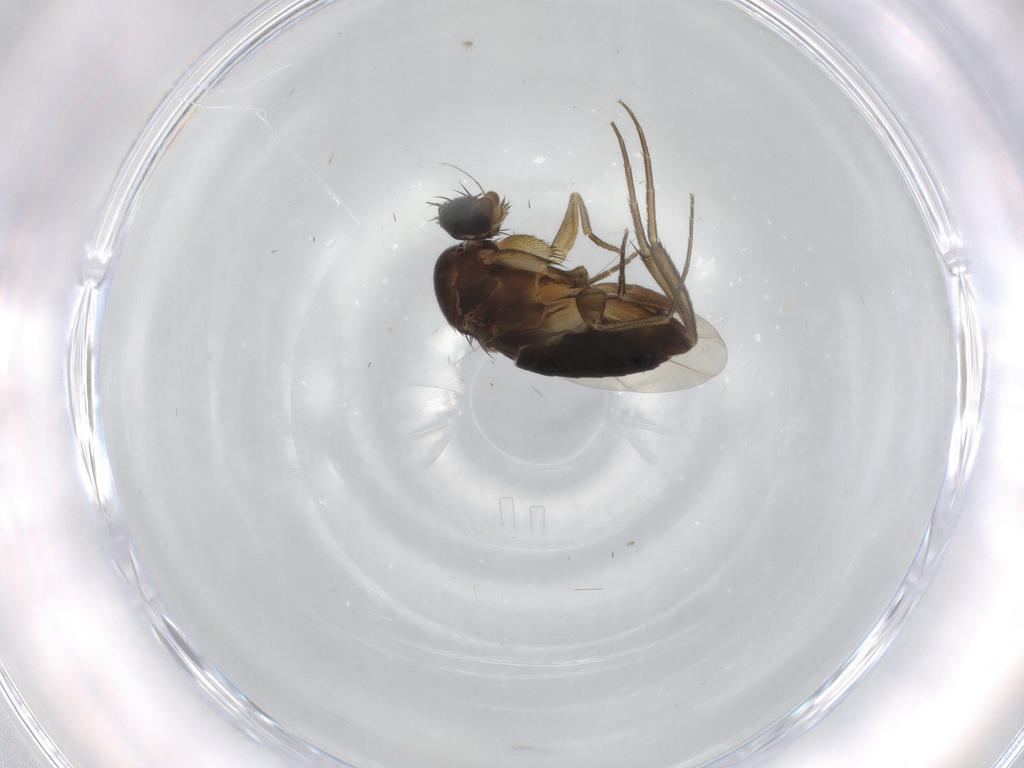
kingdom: Animalia
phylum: Arthropoda
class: Insecta
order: Diptera
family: Phoridae
